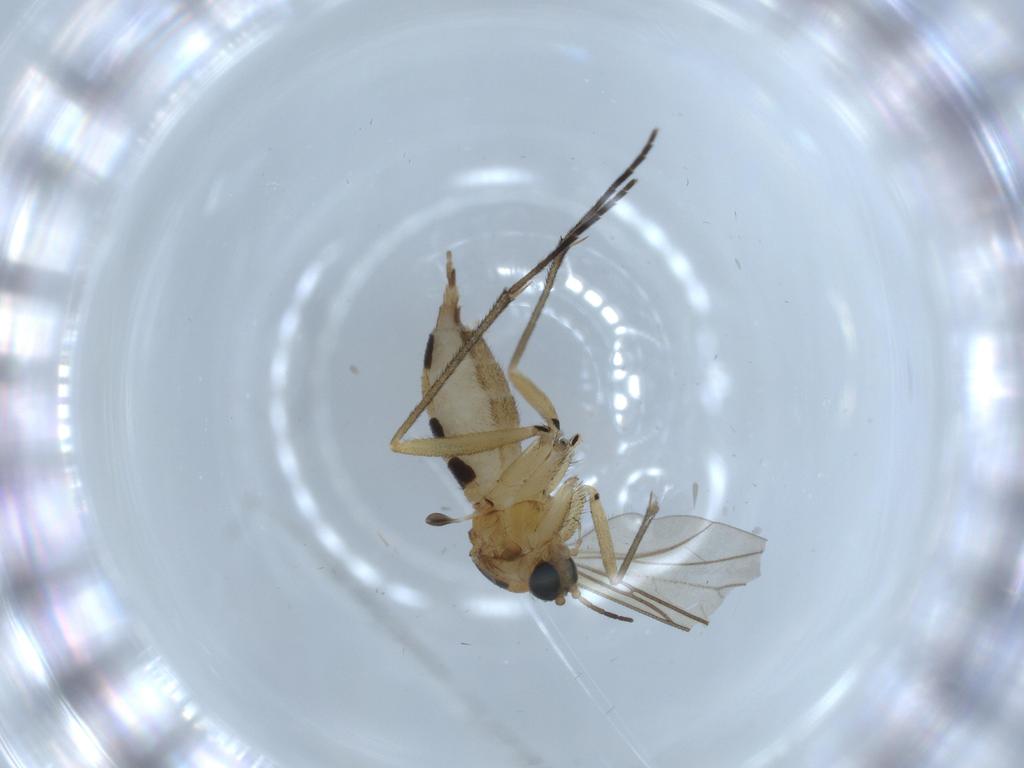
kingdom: Animalia
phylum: Arthropoda
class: Insecta
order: Diptera
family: Sciaridae
